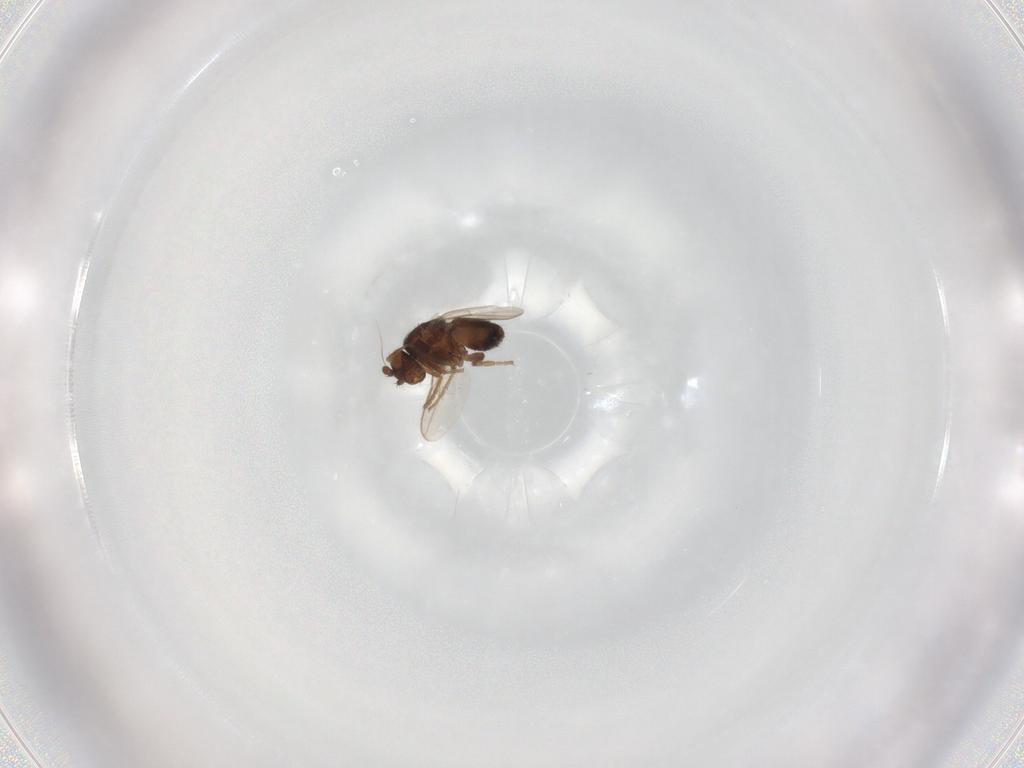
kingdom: Animalia
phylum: Arthropoda
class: Insecta
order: Diptera
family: Sphaeroceridae
